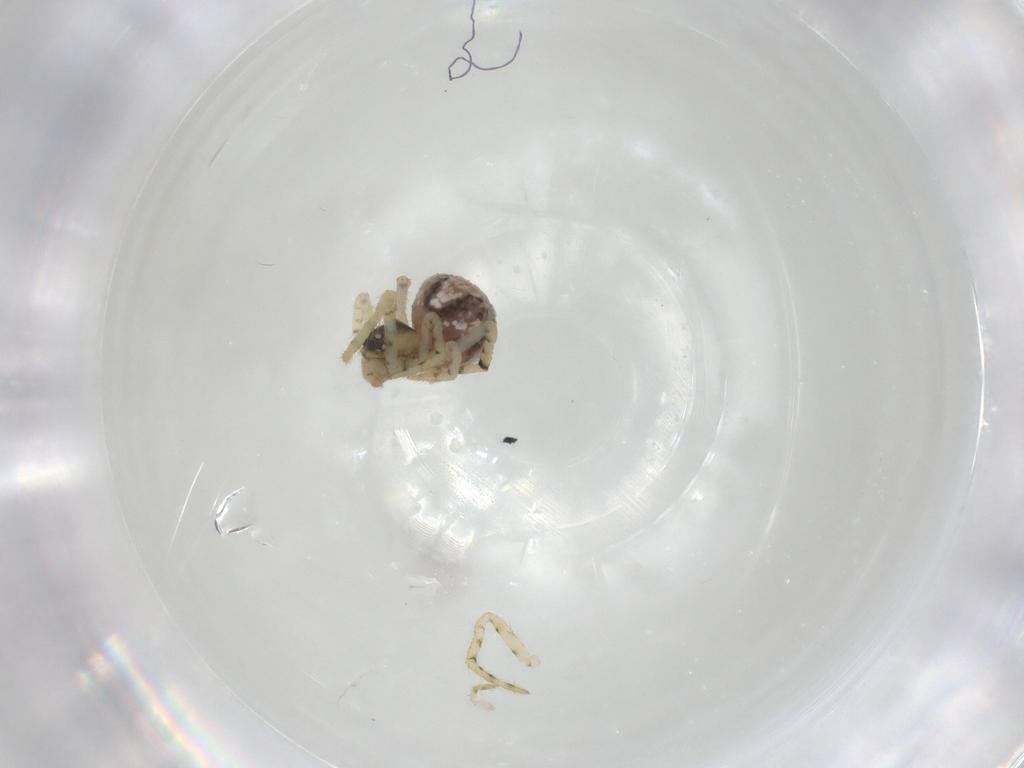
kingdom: Animalia
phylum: Arthropoda
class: Arachnida
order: Araneae
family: Theridiidae
